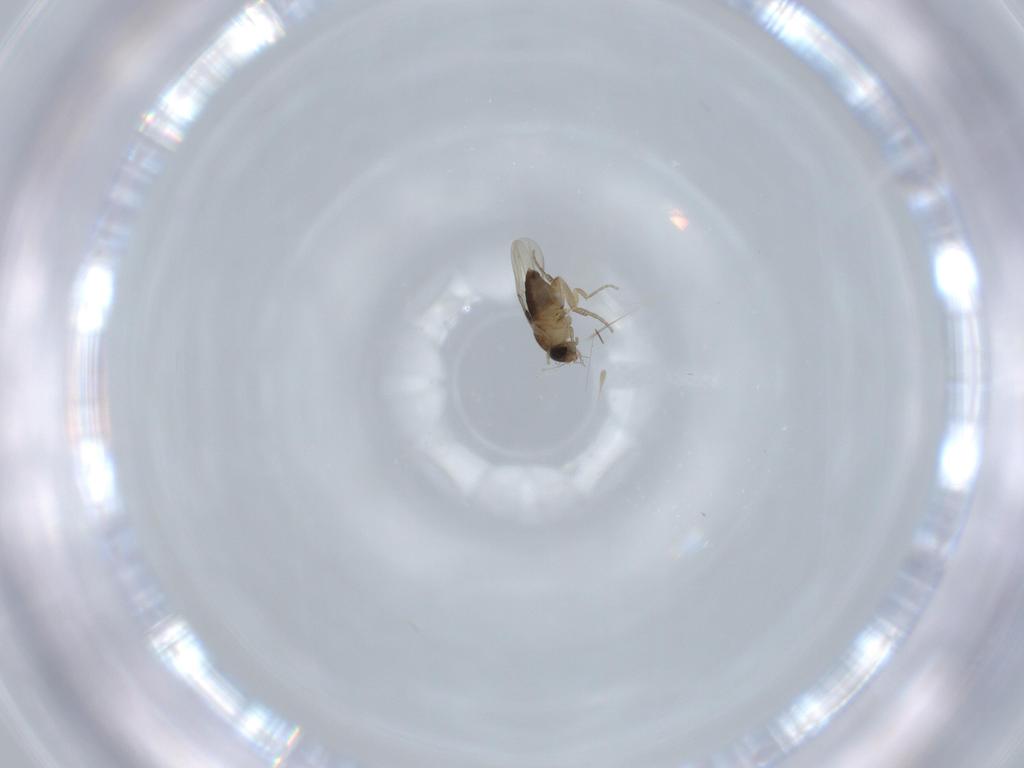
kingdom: Animalia
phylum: Arthropoda
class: Insecta
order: Diptera
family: Phoridae
